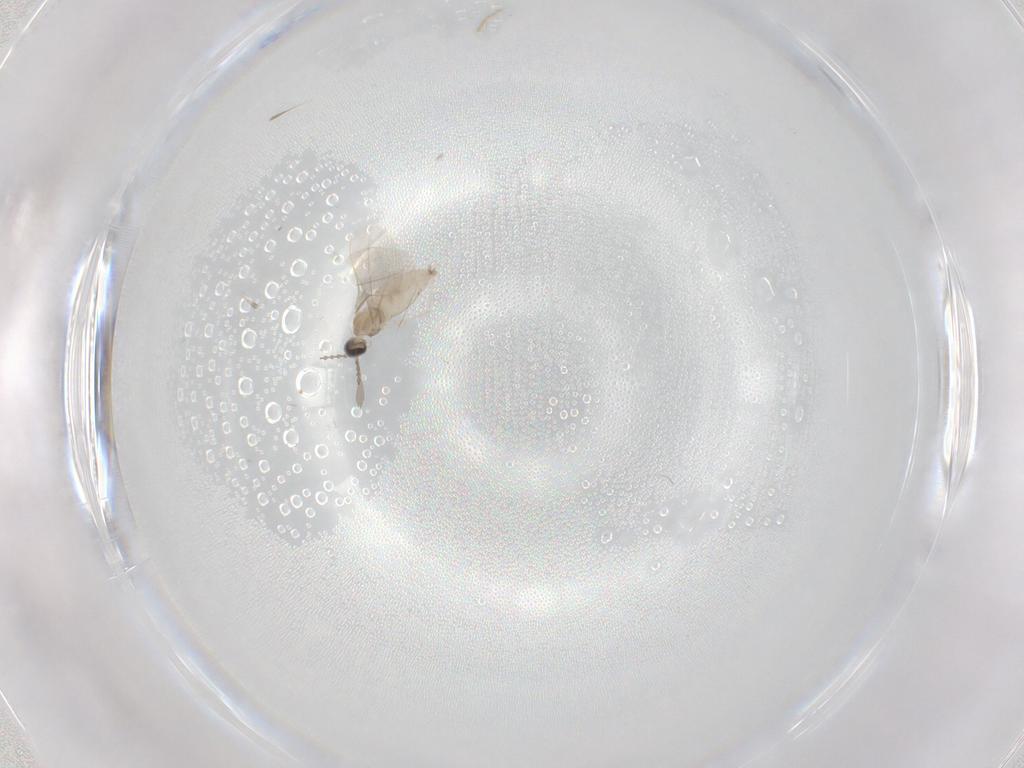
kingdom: Animalia
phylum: Arthropoda
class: Insecta
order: Diptera
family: Cecidomyiidae
